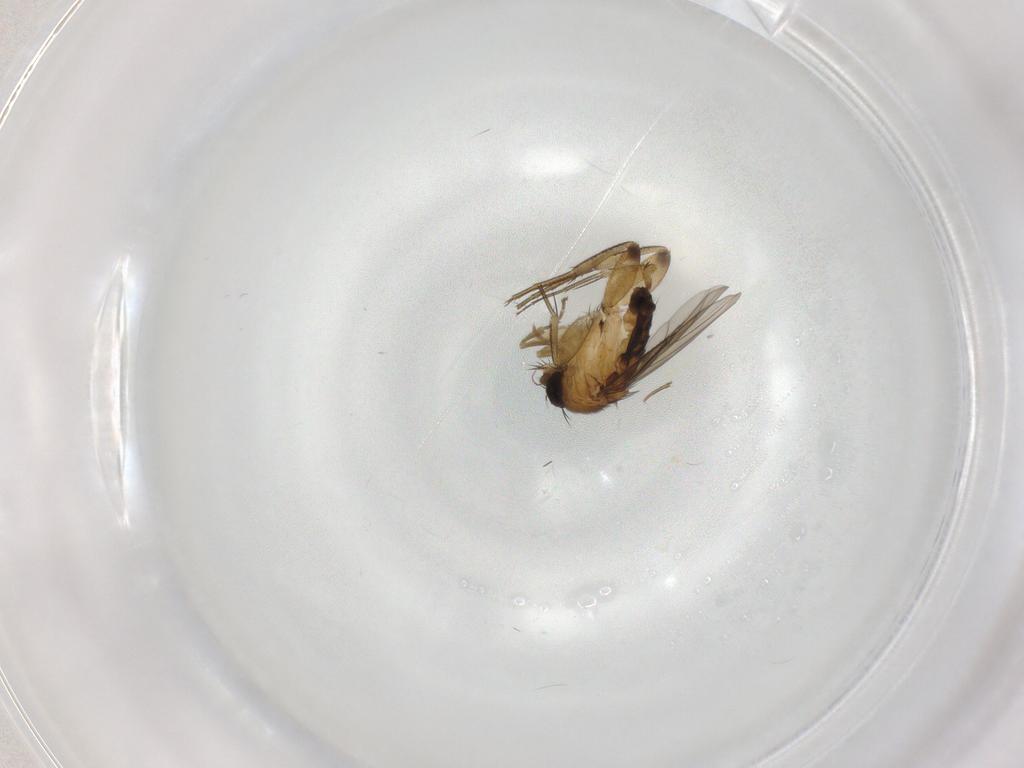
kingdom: Animalia
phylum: Arthropoda
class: Insecta
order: Diptera
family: Phoridae
